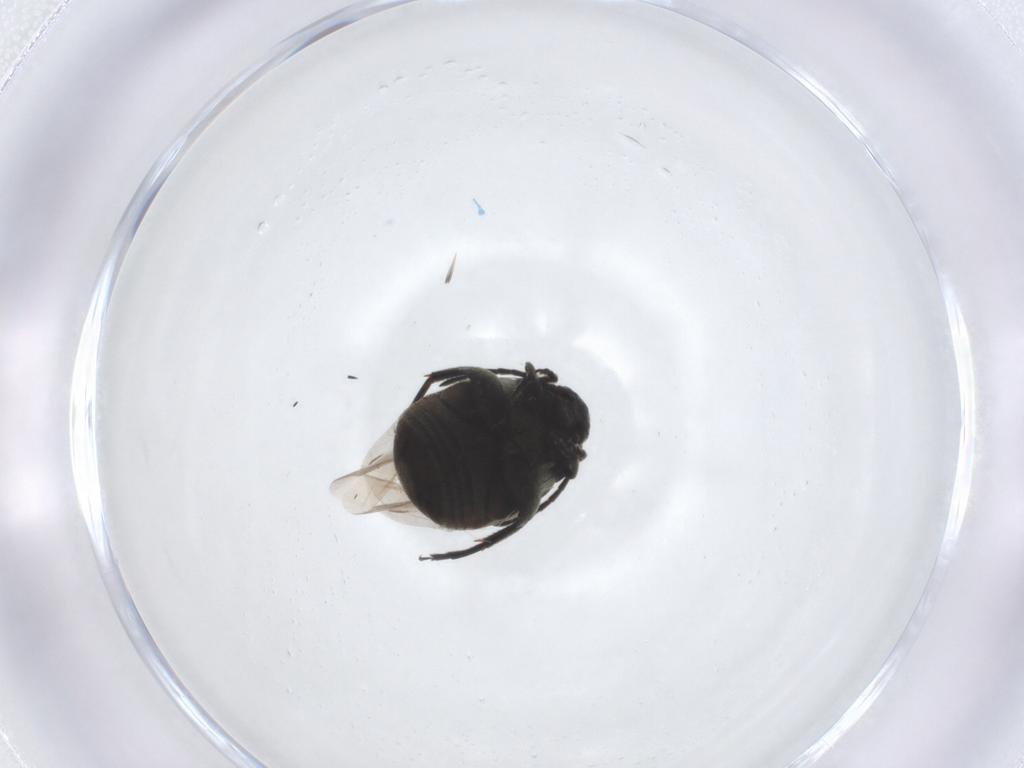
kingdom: Animalia
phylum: Arthropoda
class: Insecta
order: Coleoptera
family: Chrysomelidae
